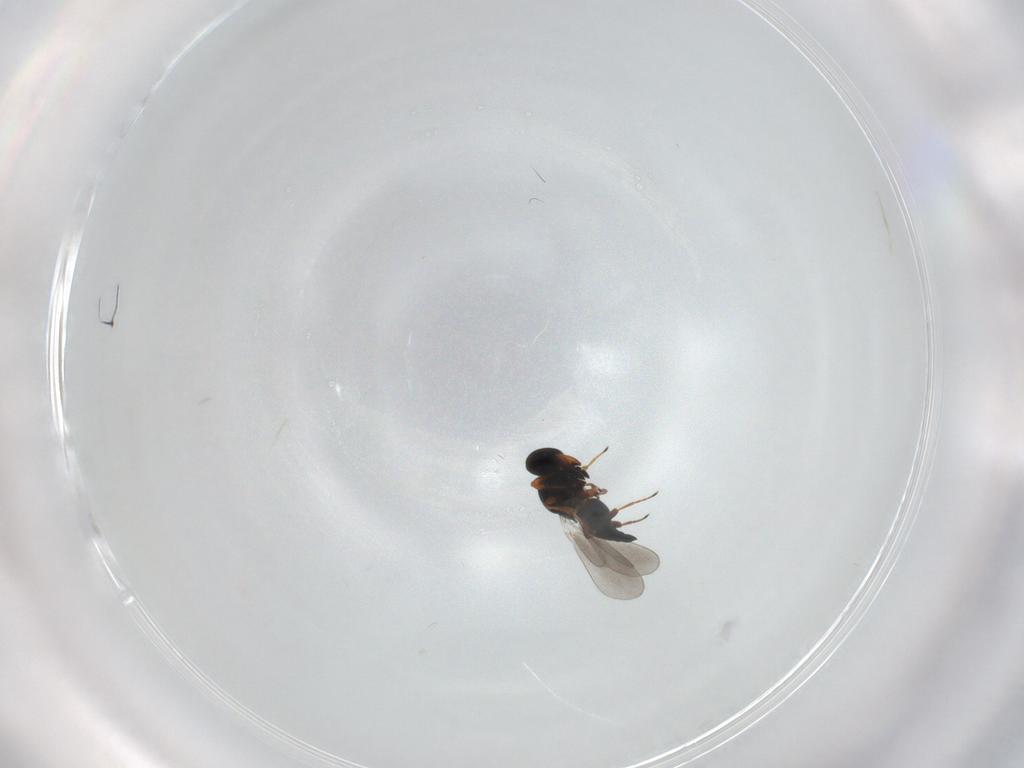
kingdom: Animalia
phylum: Arthropoda
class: Insecta
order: Hymenoptera
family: Platygastridae
